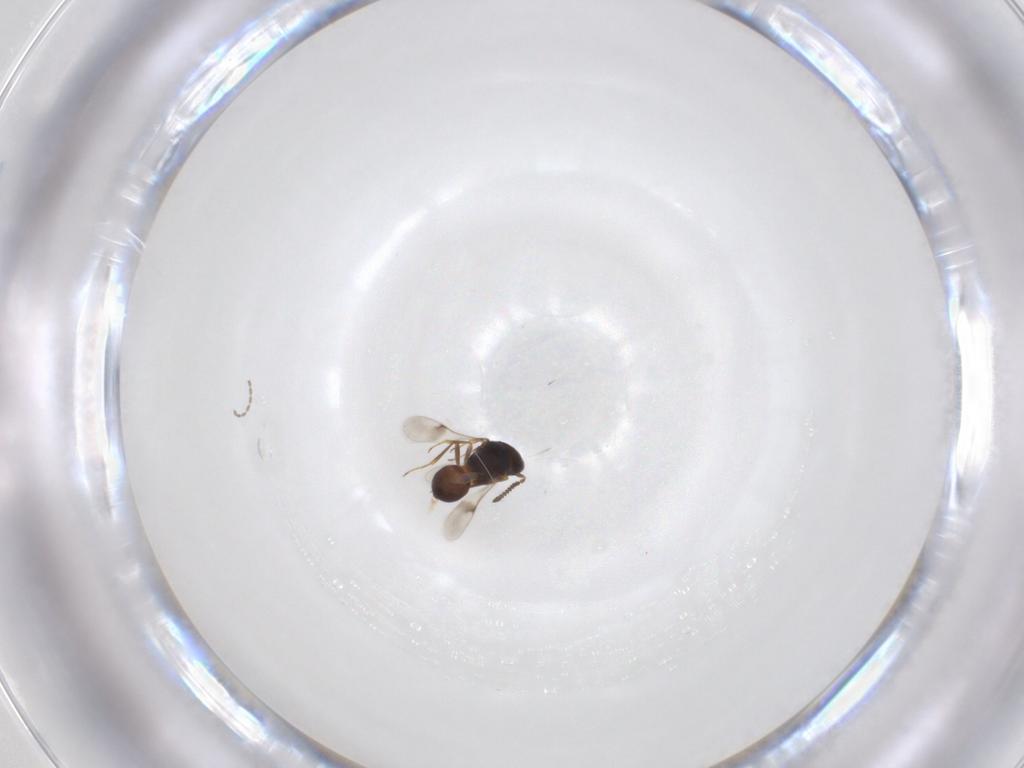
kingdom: Animalia
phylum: Arthropoda
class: Insecta
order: Hymenoptera
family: Scelionidae
